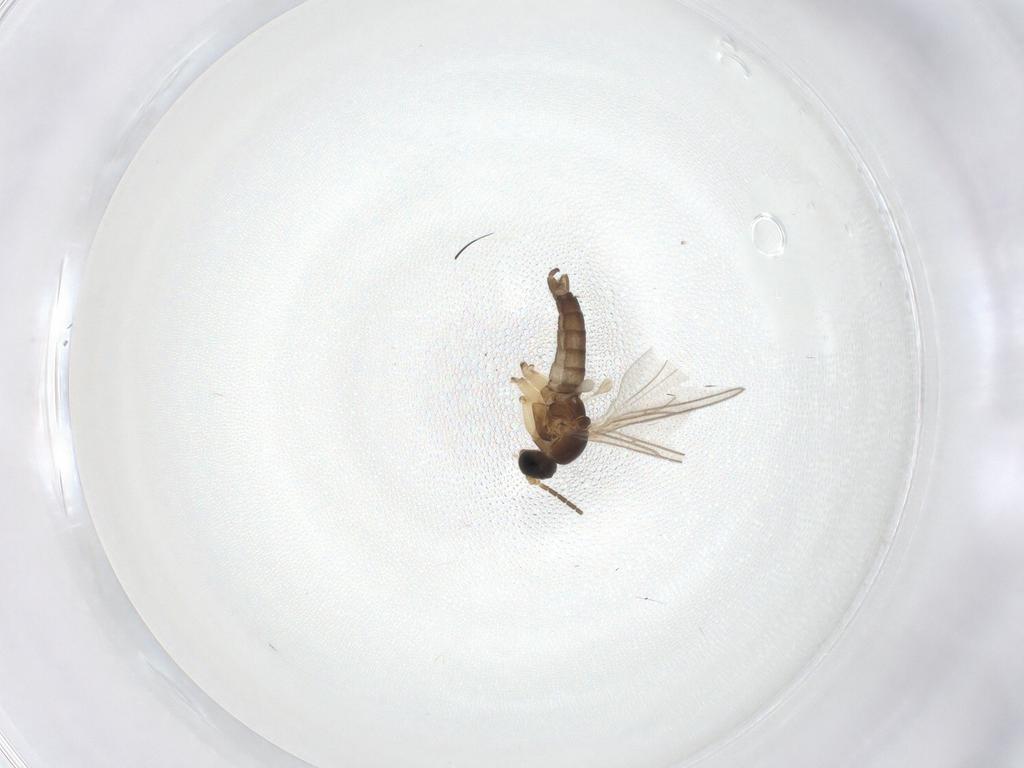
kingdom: Animalia
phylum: Arthropoda
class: Insecta
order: Diptera
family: Sciaridae
